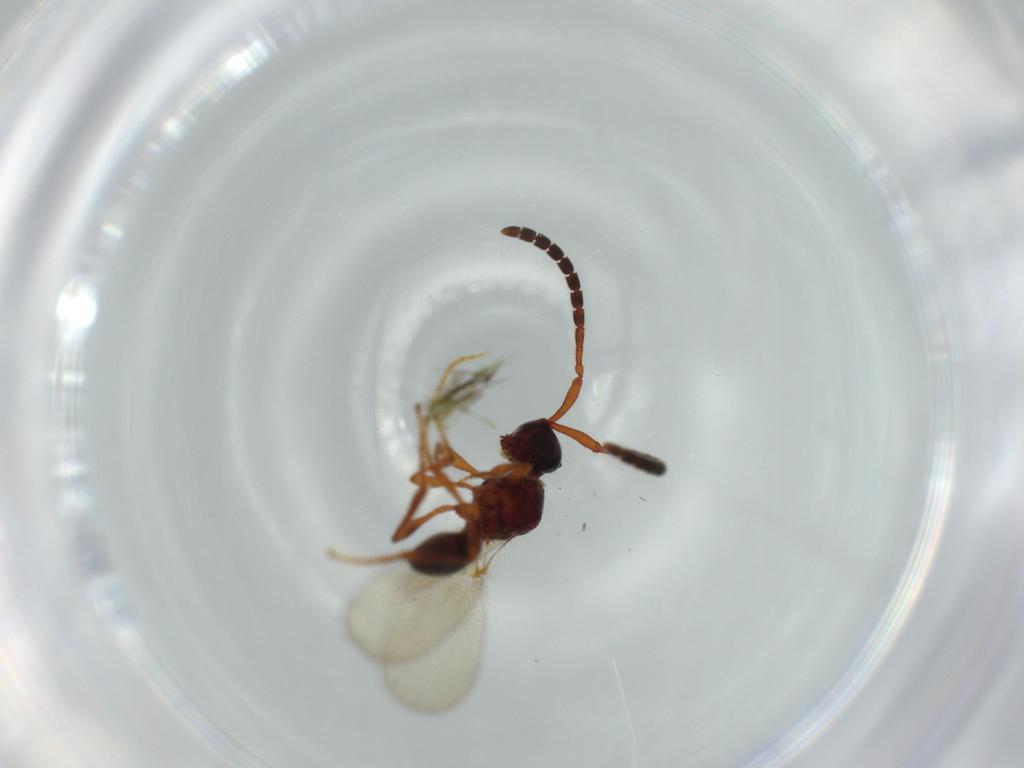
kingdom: Animalia
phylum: Arthropoda
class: Insecta
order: Hymenoptera
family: Diapriidae
